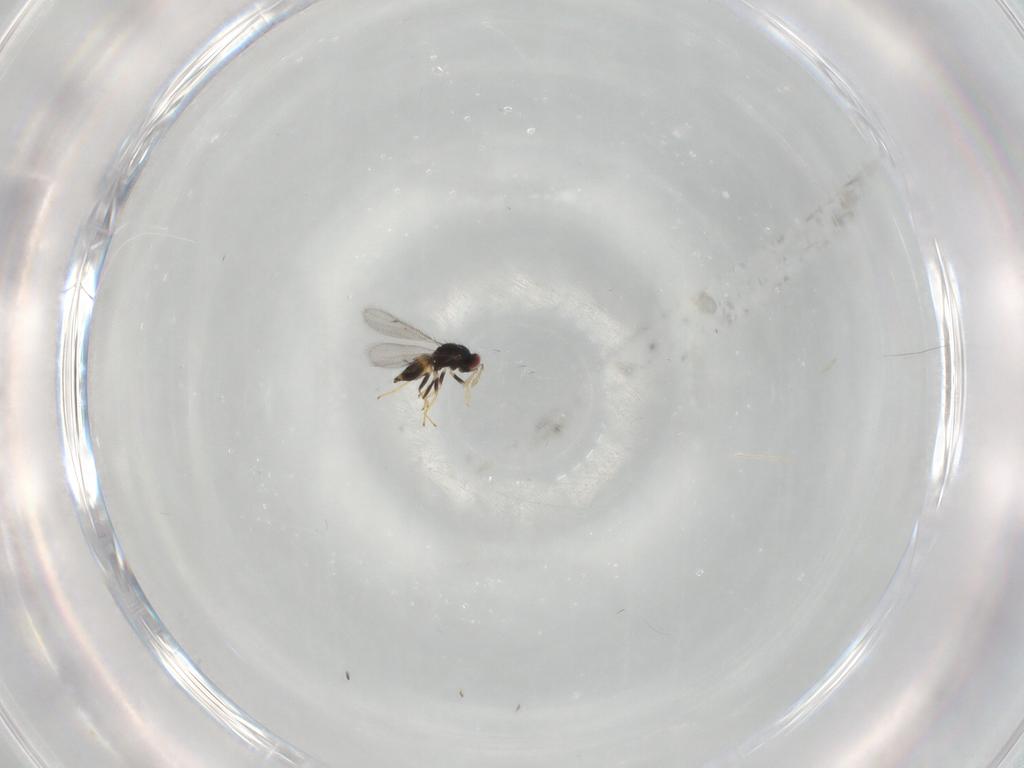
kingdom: Animalia
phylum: Arthropoda
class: Insecta
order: Hymenoptera
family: Eulophidae
